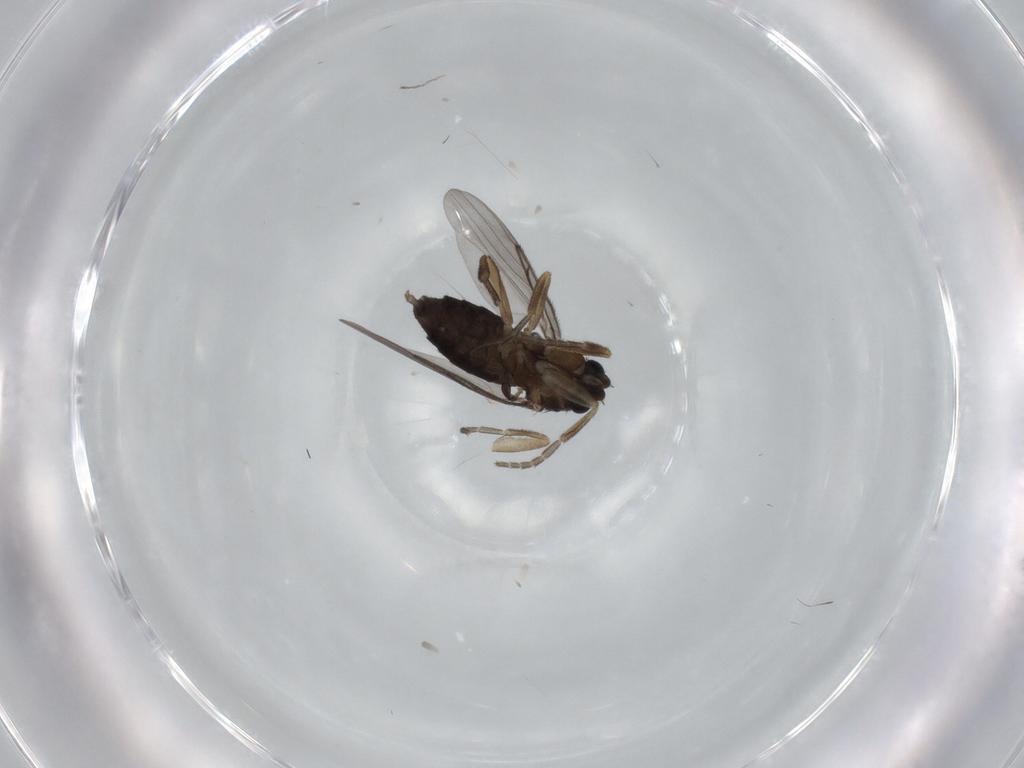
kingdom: Animalia
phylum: Arthropoda
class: Insecta
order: Diptera
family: Phoridae
